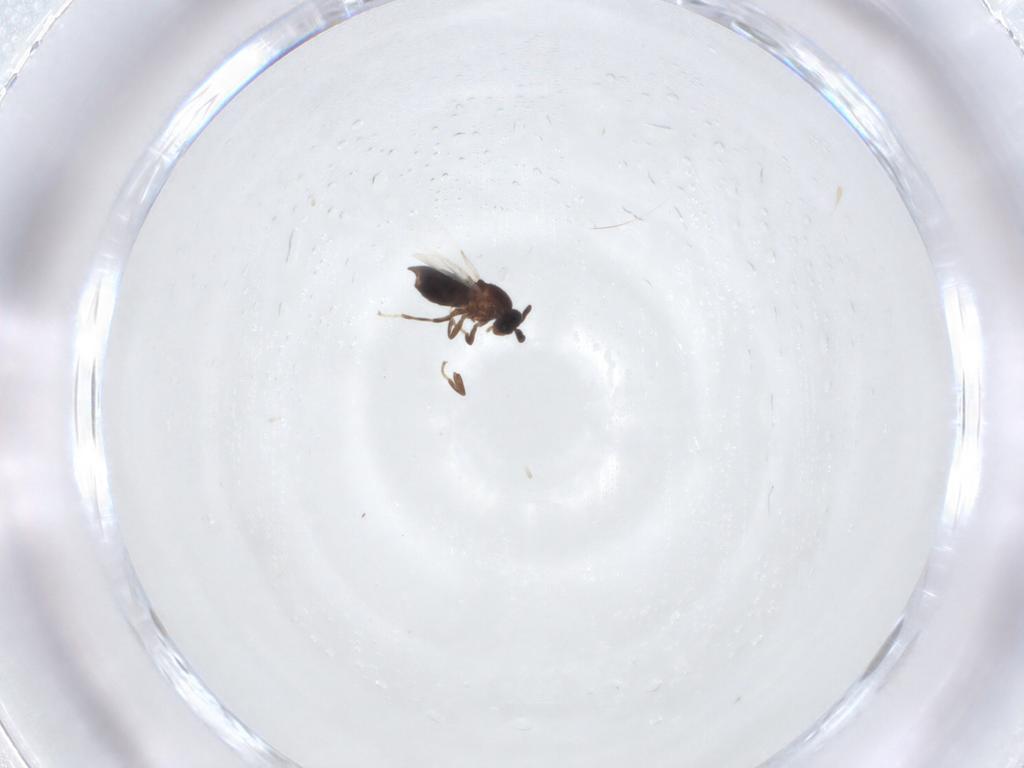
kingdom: Animalia
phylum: Arthropoda
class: Insecta
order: Diptera
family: Scatopsidae
